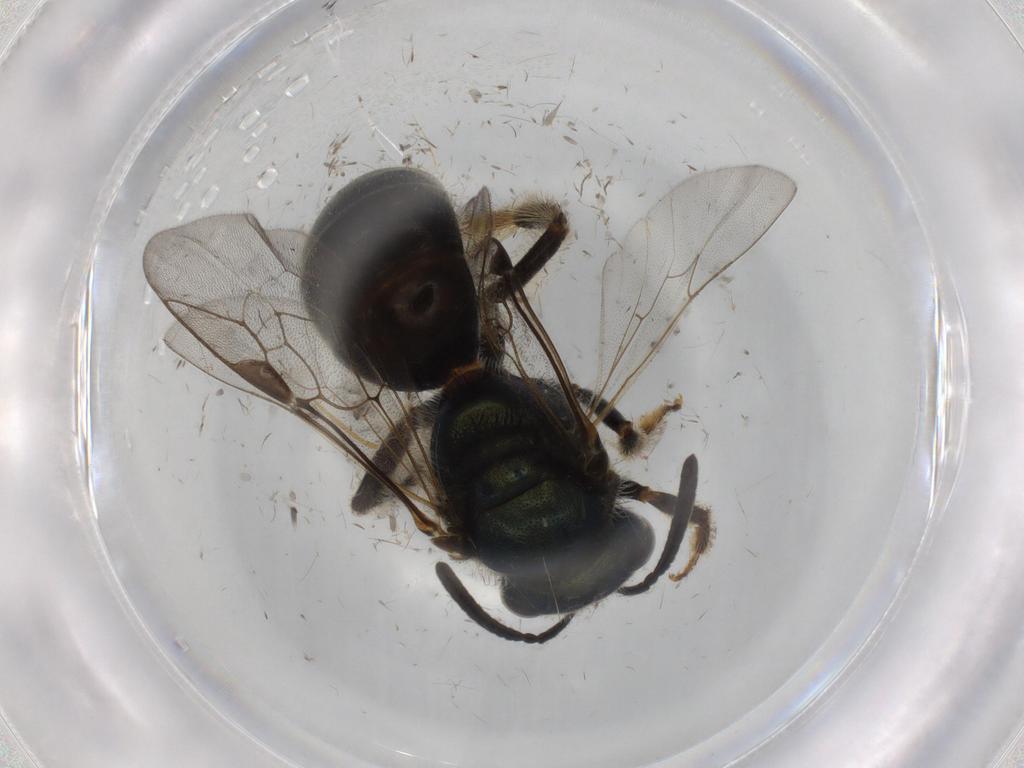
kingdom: Animalia
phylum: Arthropoda
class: Insecta
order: Hymenoptera
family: Halictidae
